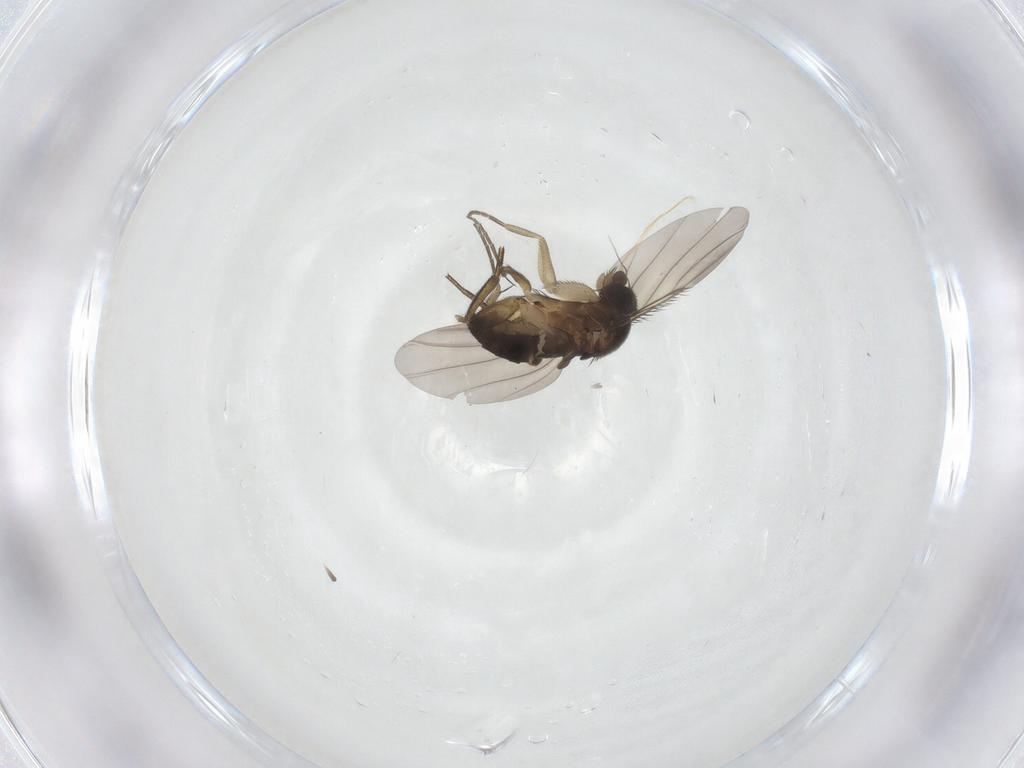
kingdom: Animalia
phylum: Arthropoda
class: Insecta
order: Diptera
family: Phoridae
